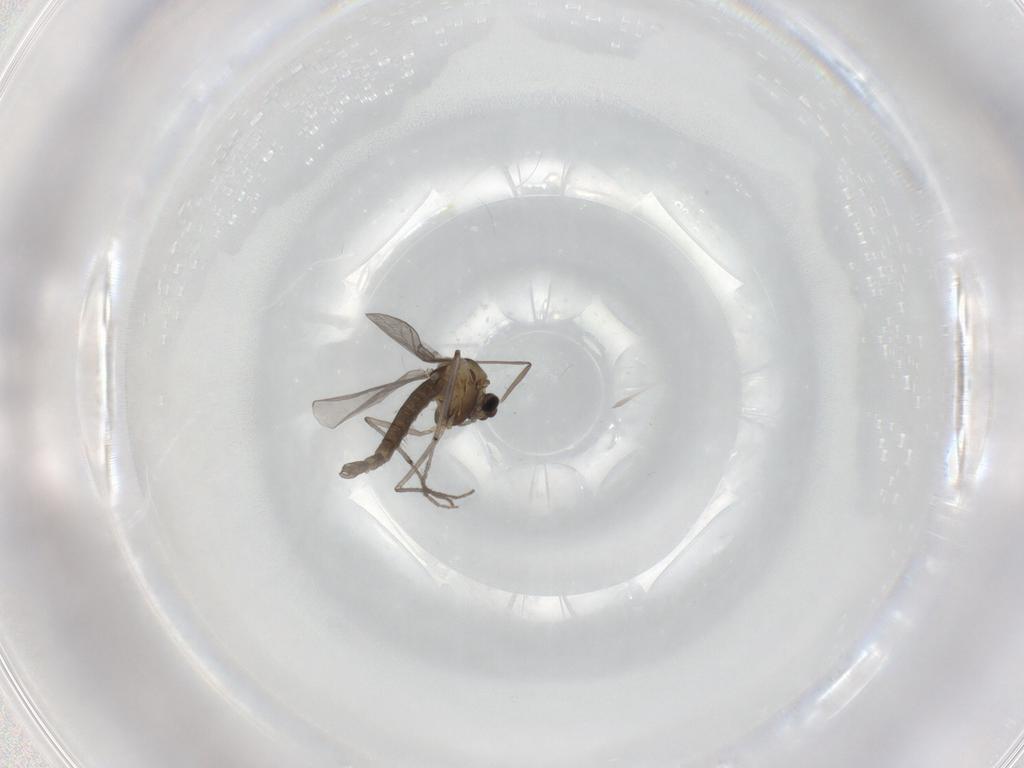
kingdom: Animalia
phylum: Arthropoda
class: Insecta
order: Diptera
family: Chironomidae
